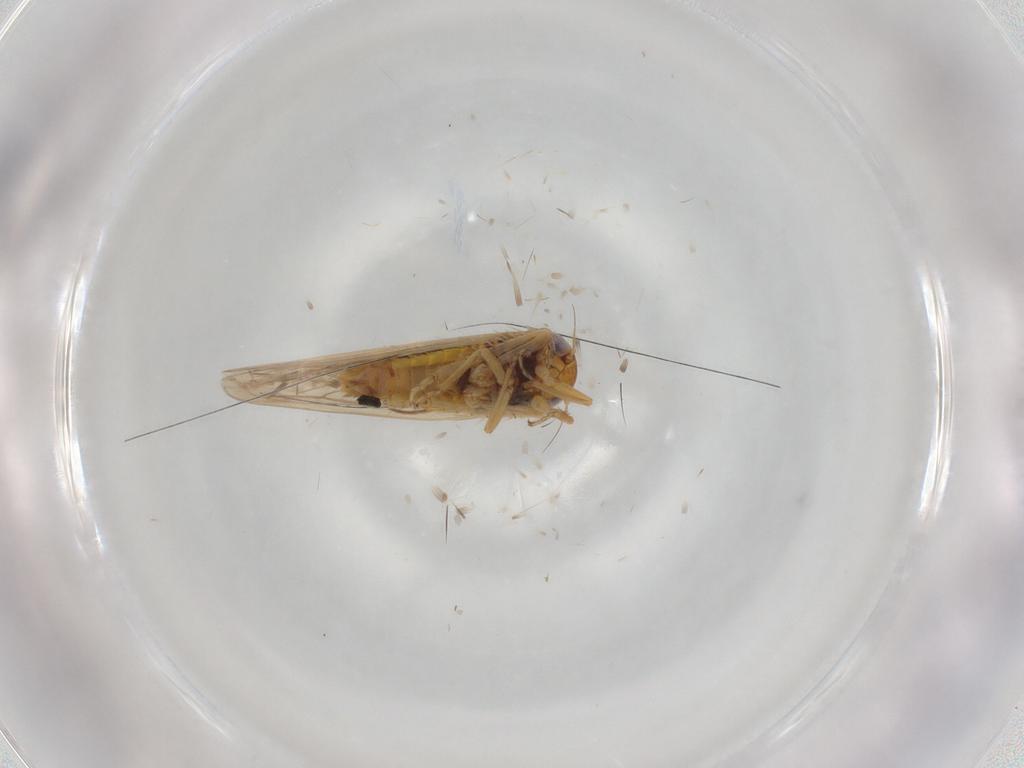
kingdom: Animalia
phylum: Arthropoda
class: Insecta
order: Hemiptera
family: Cicadellidae
